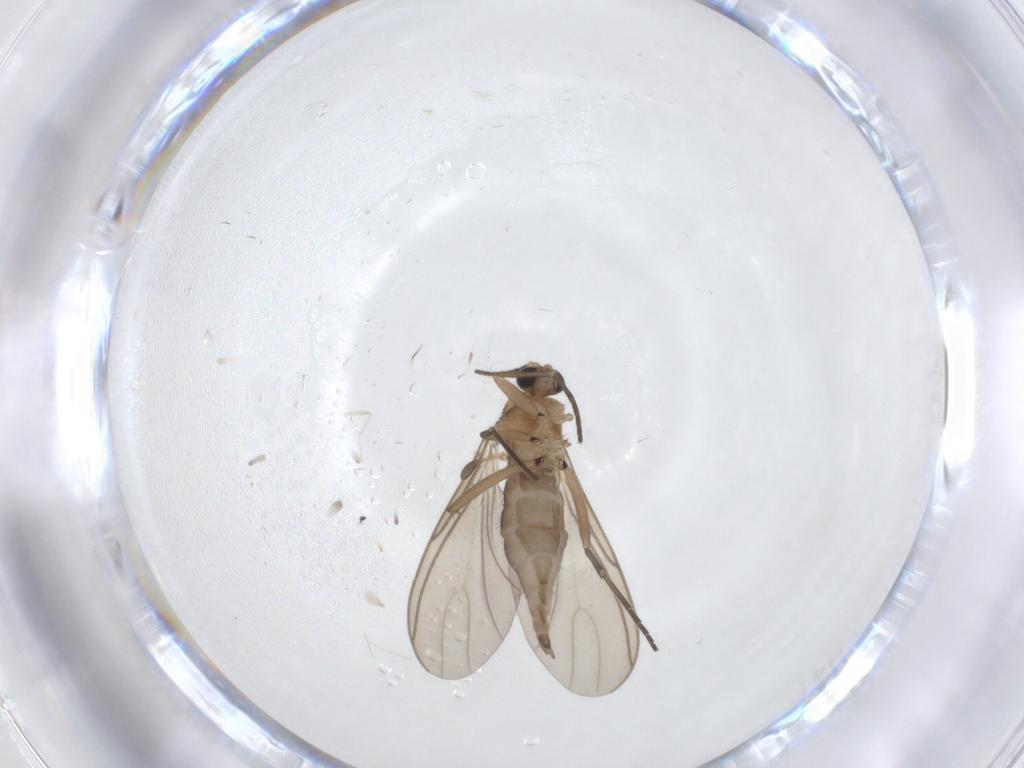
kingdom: Animalia
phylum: Arthropoda
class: Insecta
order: Diptera
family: Sciaridae
